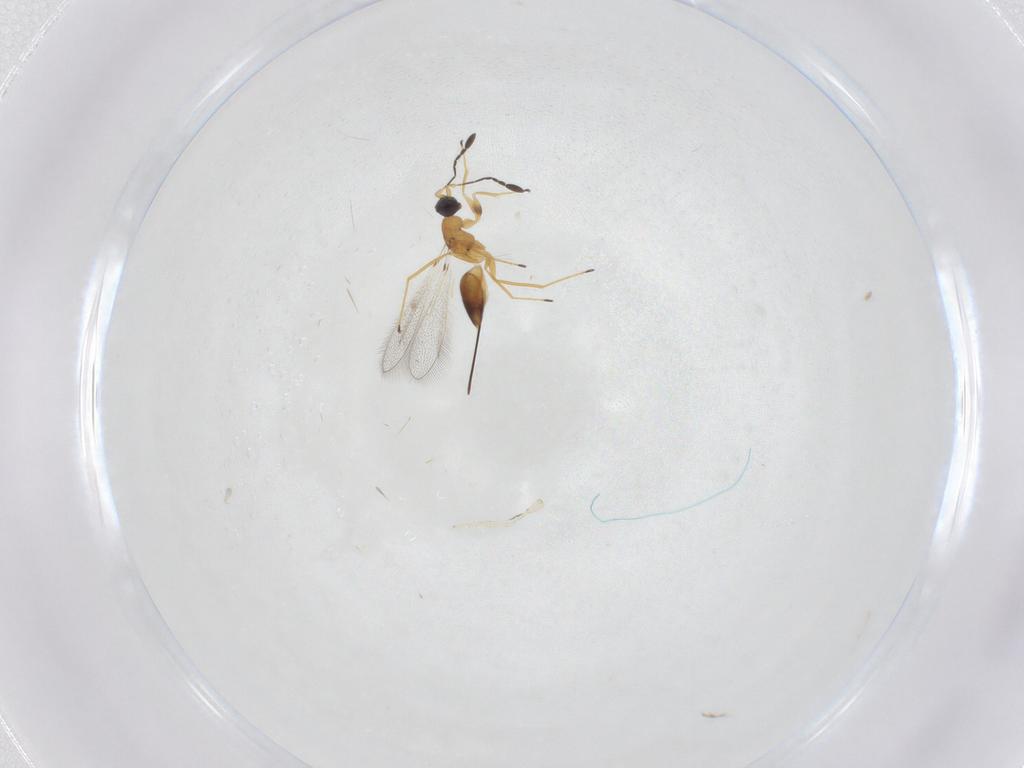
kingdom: Animalia
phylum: Arthropoda
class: Insecta
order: Hymenoptera
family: Mymaridae
